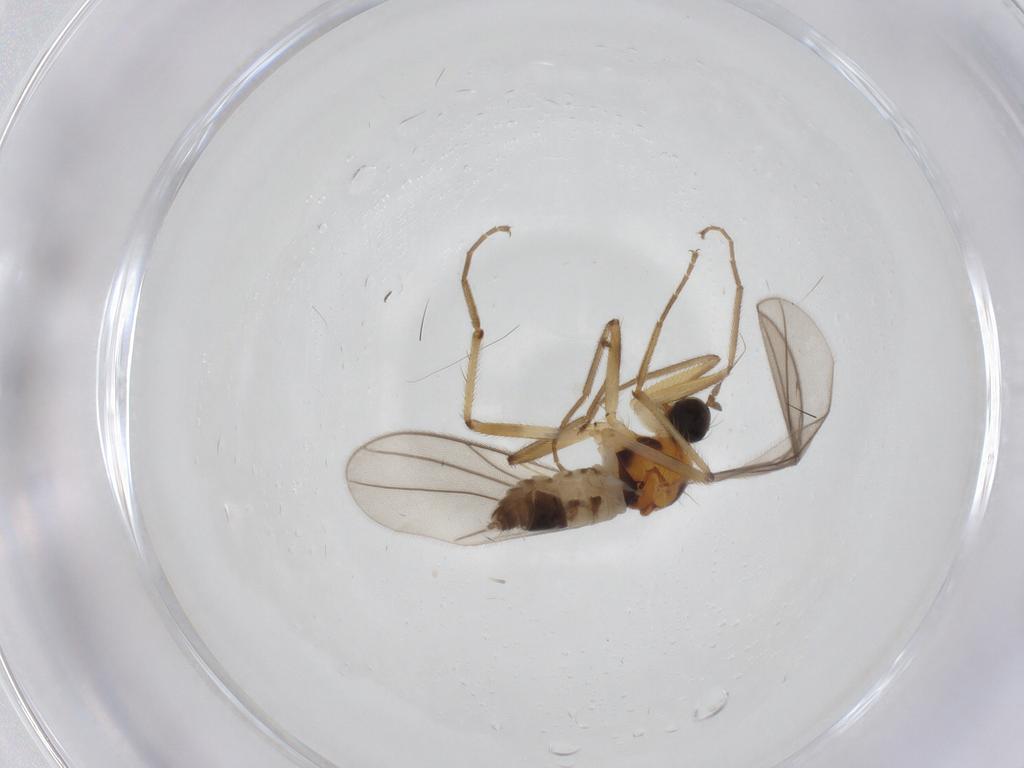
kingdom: Animalia
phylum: Arthropoda
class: Insecta
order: Diptera
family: Hybotidae
